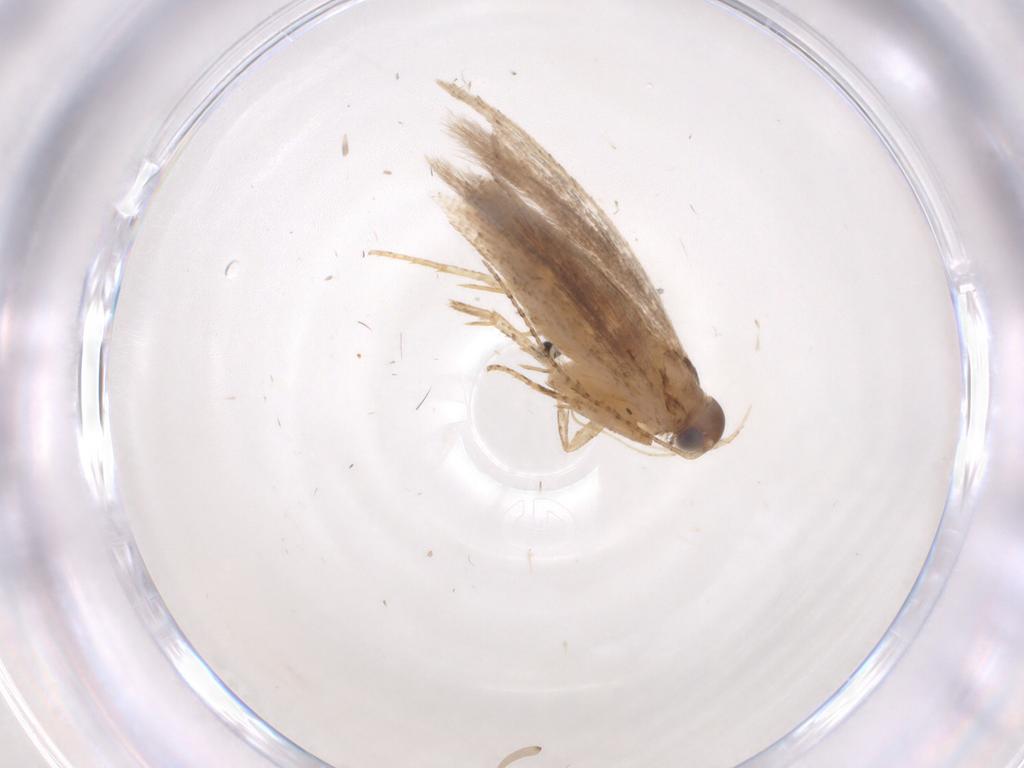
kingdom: Animalia
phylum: Arthropoda
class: Insecta
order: Lepidoptera
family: Gelechiidae
